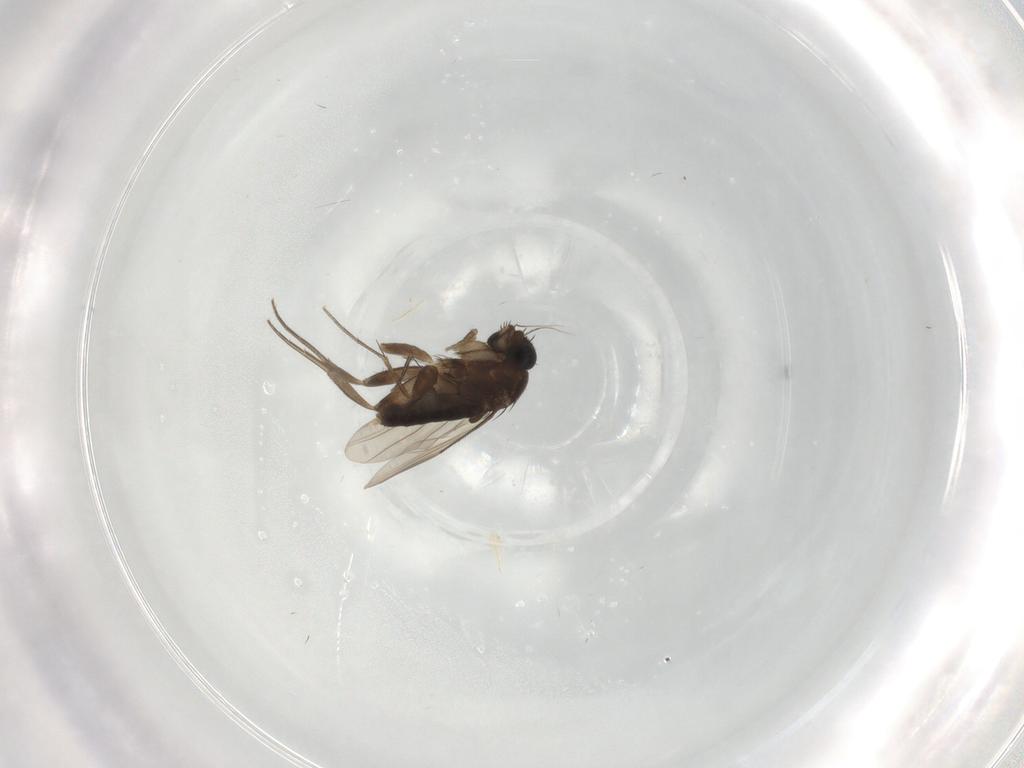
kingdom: Animalia
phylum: Arthropoda
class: Insecta
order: Diptera
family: Phoridae
